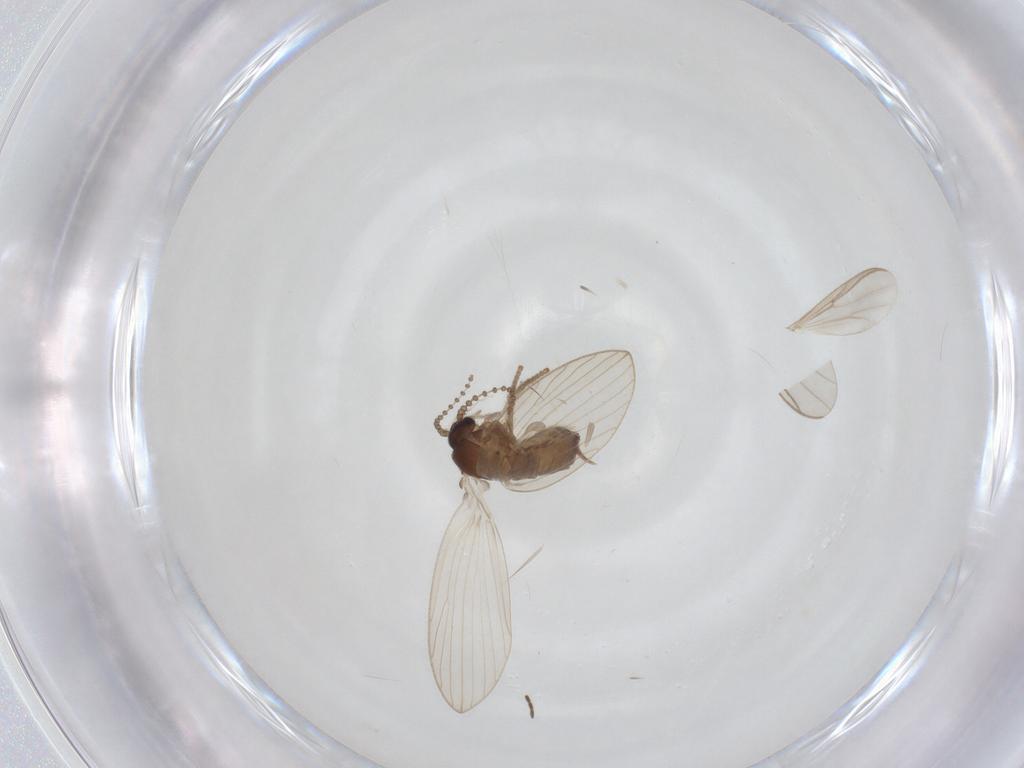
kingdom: Animalia
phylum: Arthropoda
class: Insecta
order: Diptera
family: Psychodidae
